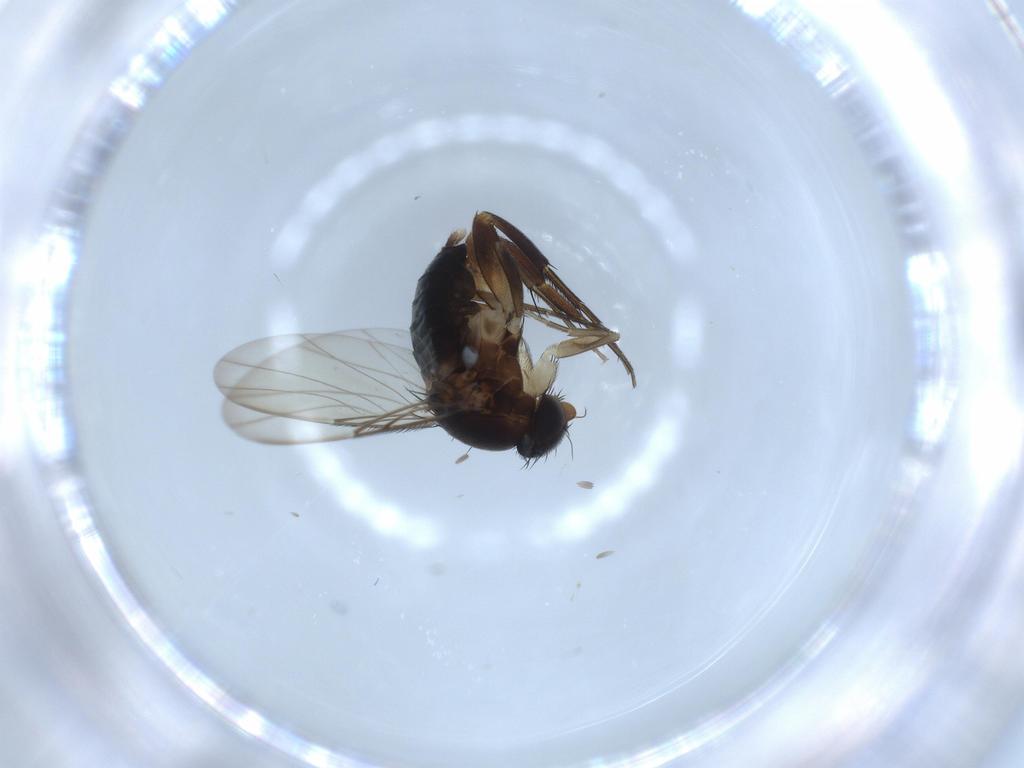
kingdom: Animalia
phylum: Arthropoda
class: Insecta
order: Diptera
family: Phoridae
